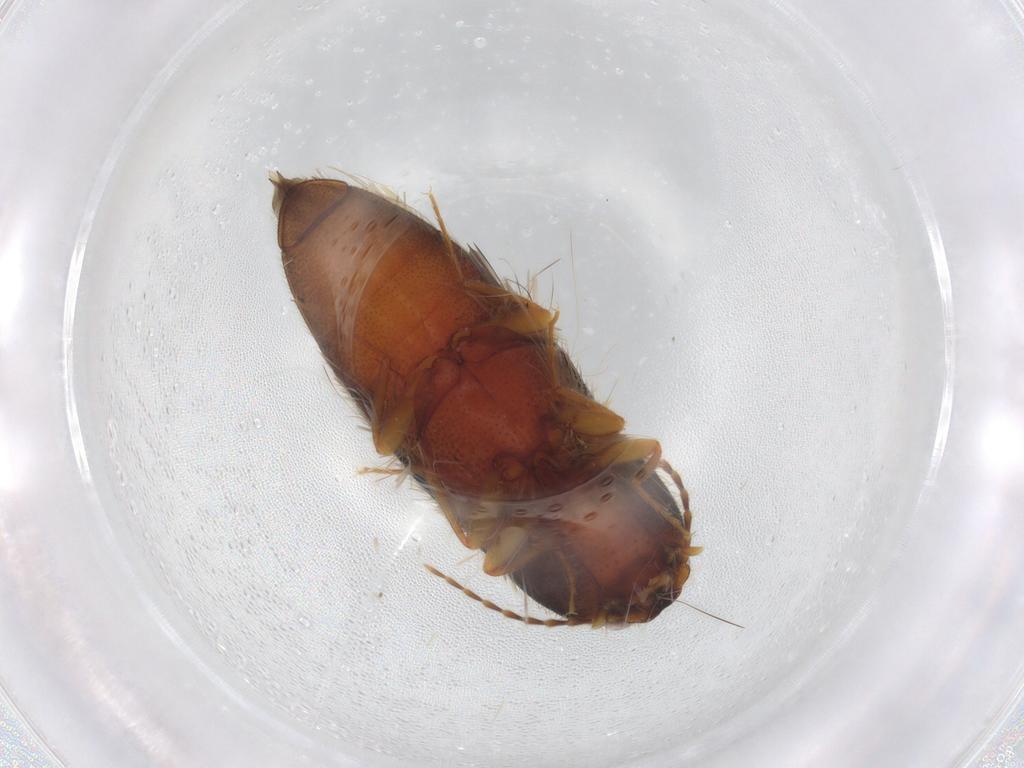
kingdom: Animalia
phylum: Arthropoda
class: Insecta
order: Coleoptera
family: Elateridae
